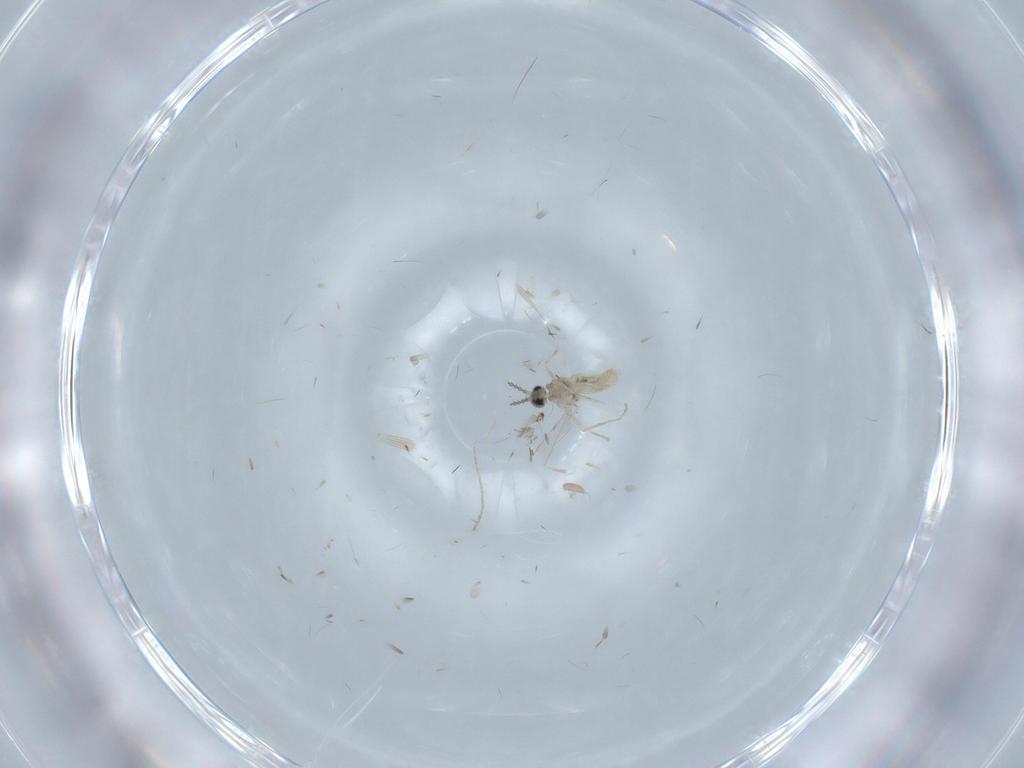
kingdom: Animalia
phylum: Arthropoda
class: Insecta
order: Diptera
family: Cecidomyiidae
